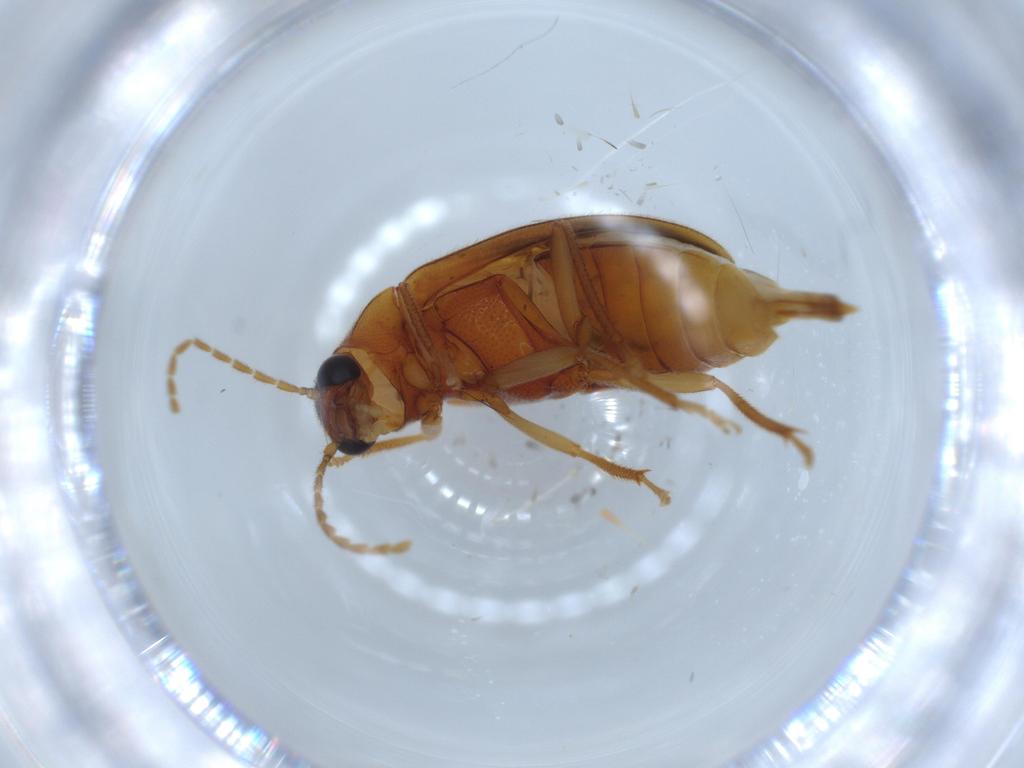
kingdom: Animalia
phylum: Arthropoda
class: Insecta
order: Coleoptera
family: Ptilodactylidae
